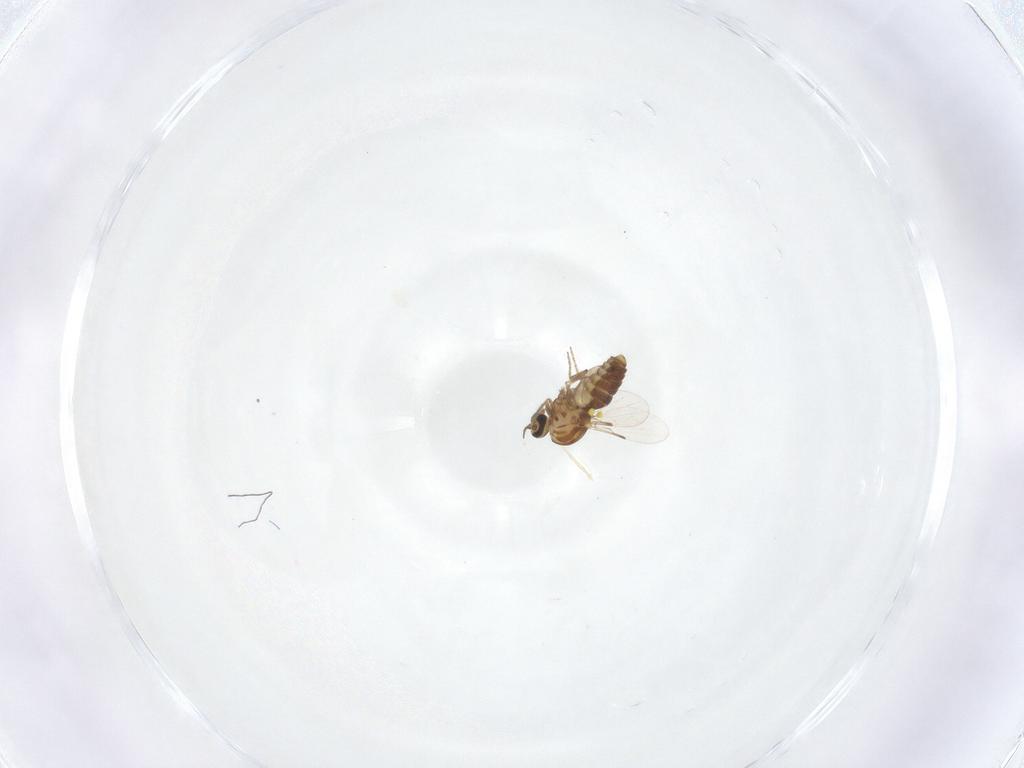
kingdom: Animalia
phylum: Arthropoda
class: Insecta
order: Diptera
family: Ceratopogonidae
